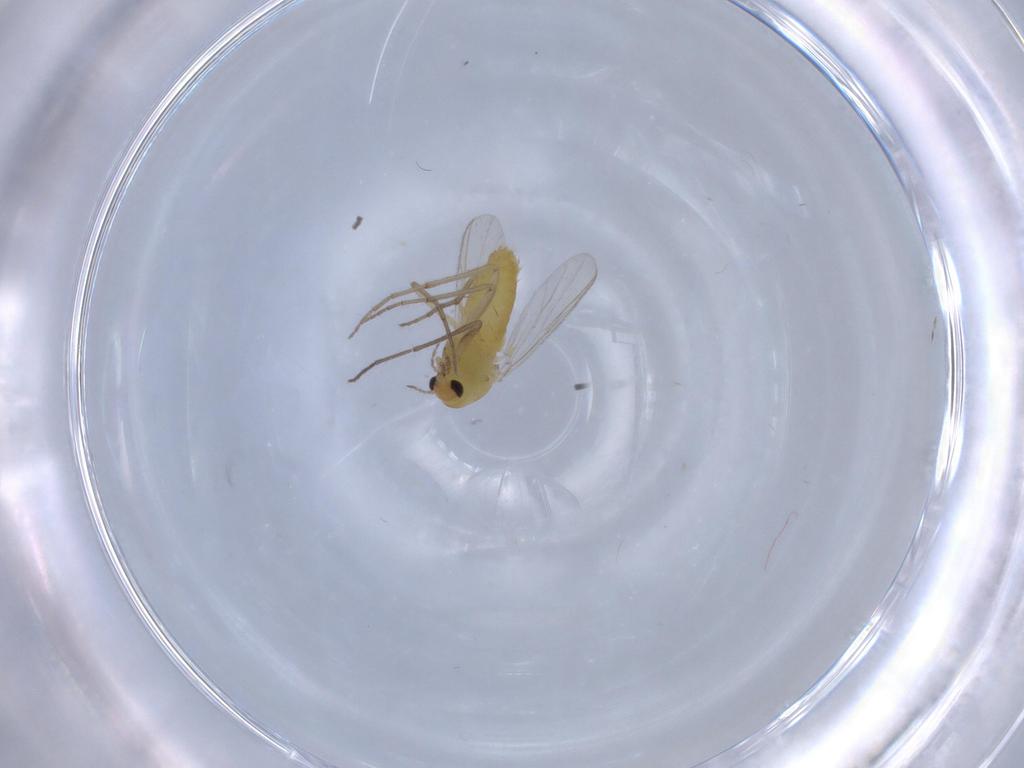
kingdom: Animalia
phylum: Arthropoda
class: Insecta
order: Diptera
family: Chironomidae
